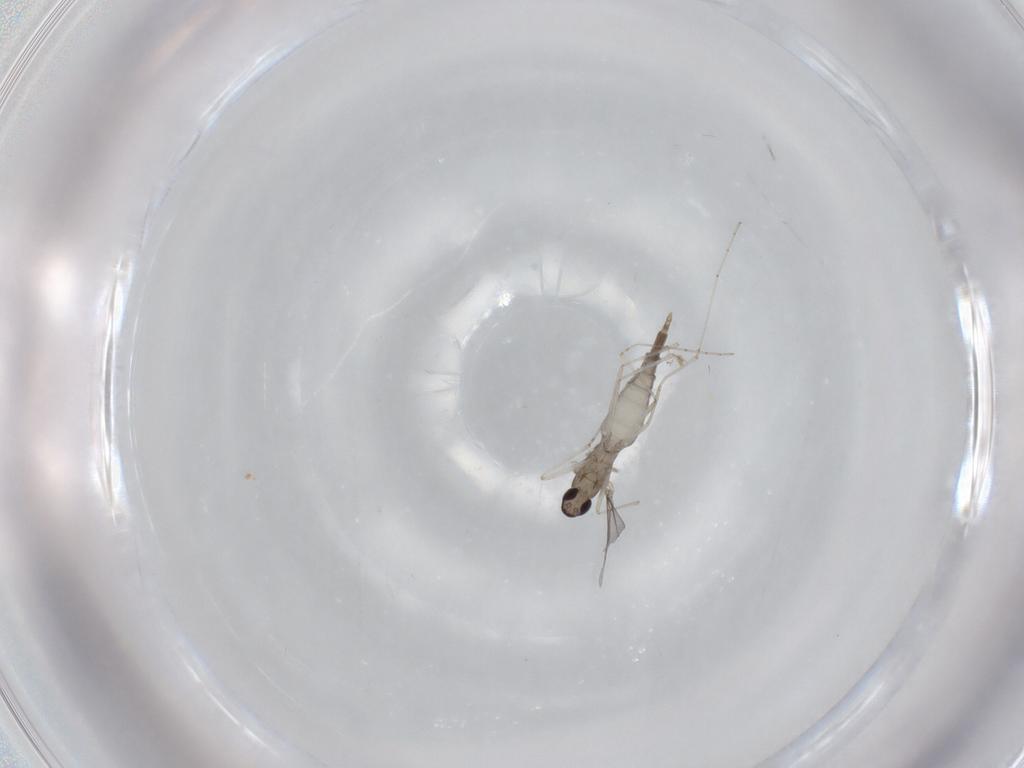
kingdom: Animalia
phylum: Arthropoda
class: Insecta
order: Diptera
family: Cecidomyiidae
